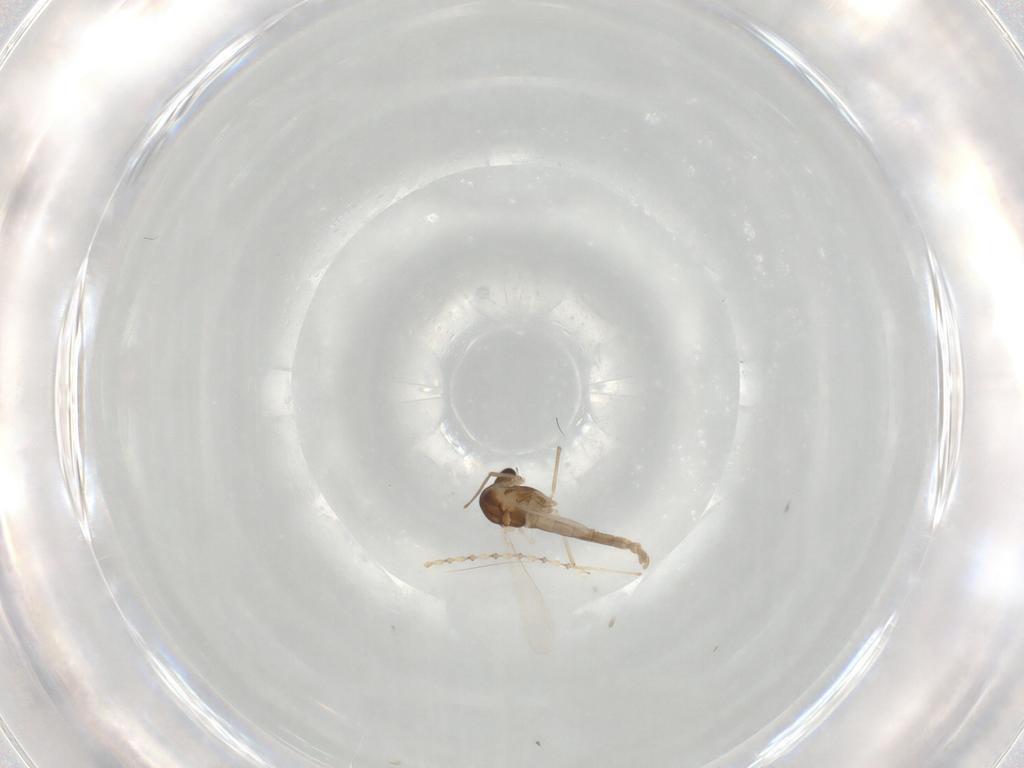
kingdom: Animalia
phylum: Arthropoda
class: Insecta
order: Diptera
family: Chironomidae
